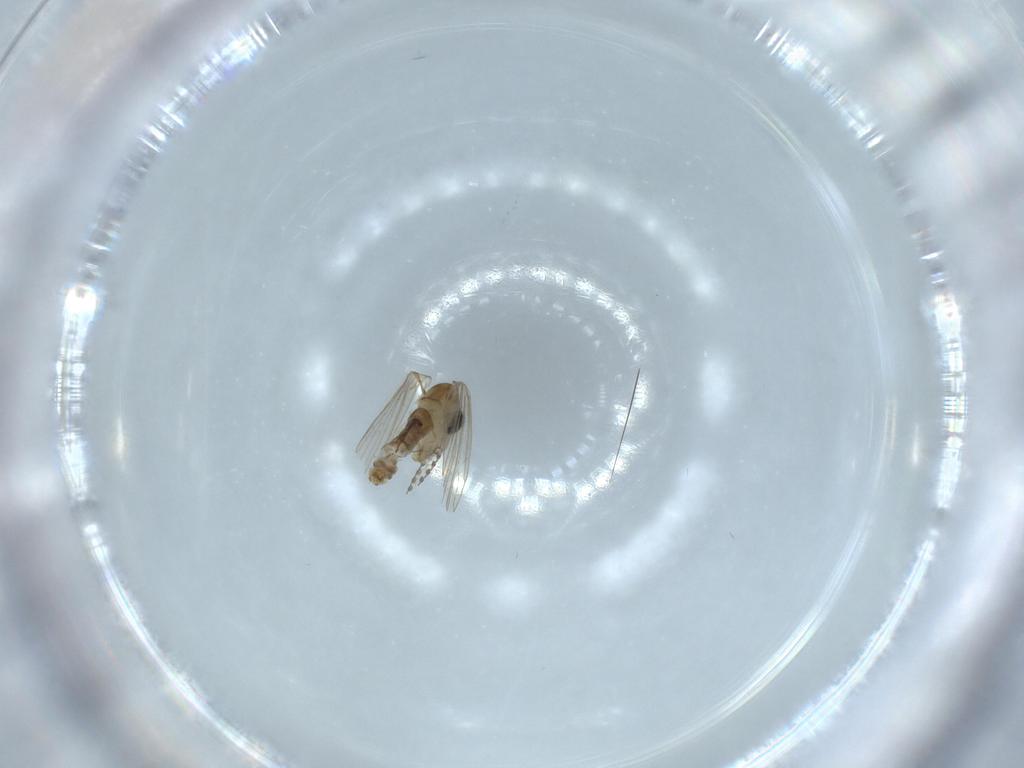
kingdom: Animalia
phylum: Arthropoda
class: Insecta
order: Diptera
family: Psychodidae
